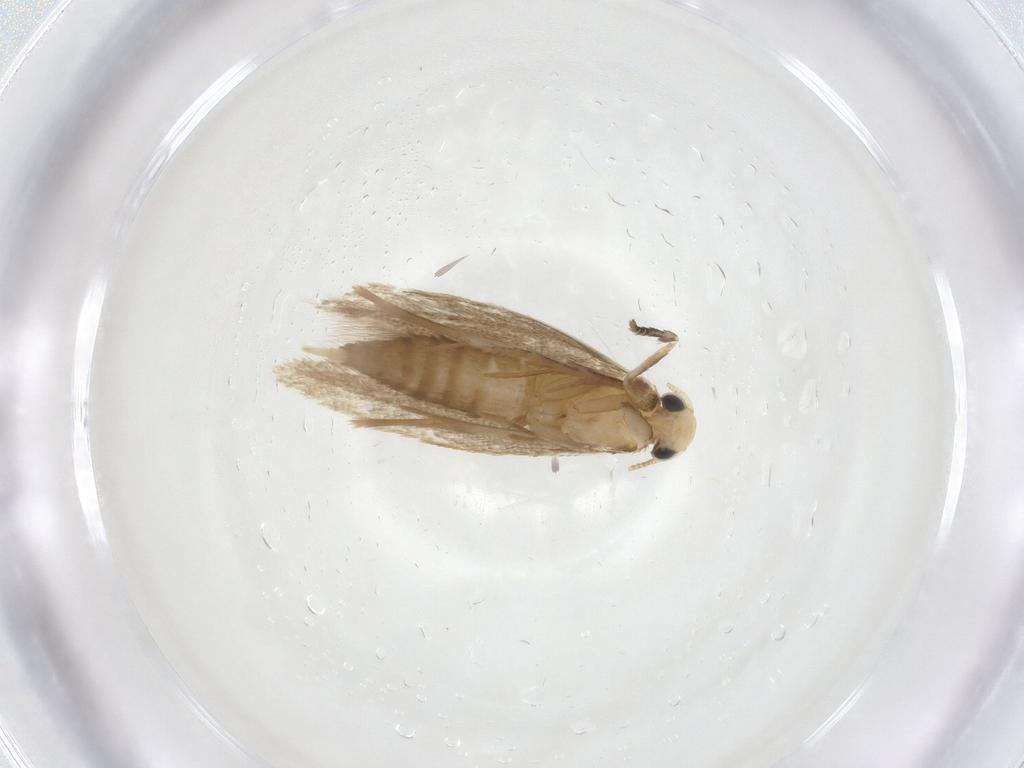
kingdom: Animalia
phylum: Arthropoda
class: Insecta
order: Lepidoptera
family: Tineidae
